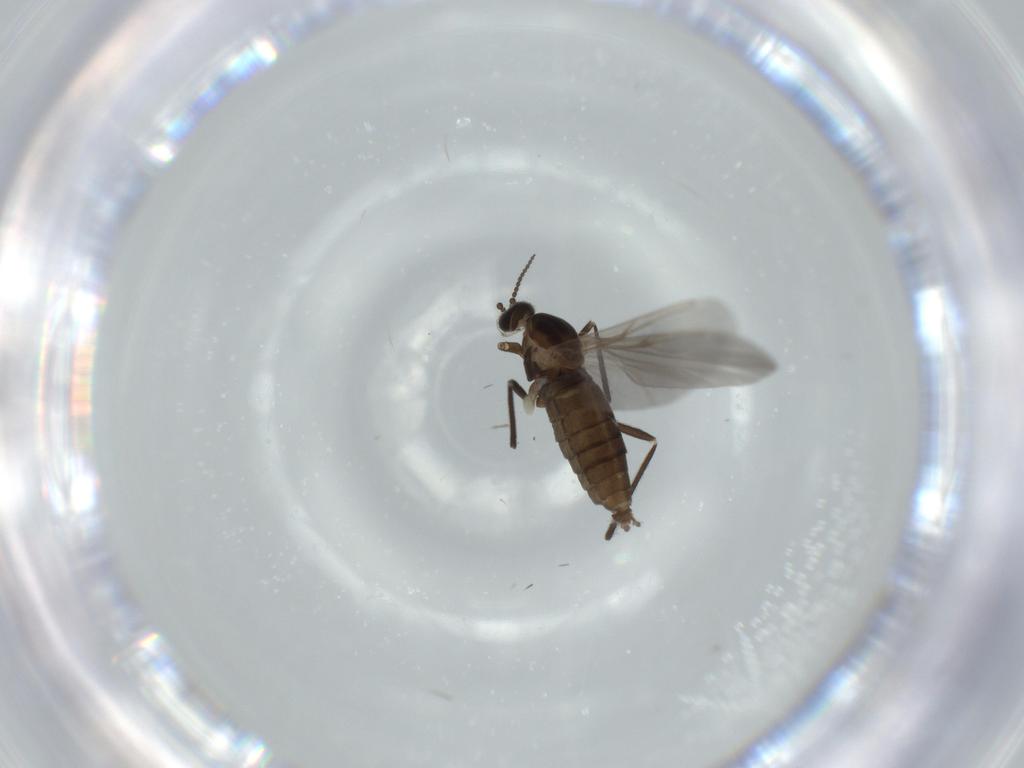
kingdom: Animalia
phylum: Arthropoda
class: Insecta
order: Diptera
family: Cecidomyiidae
